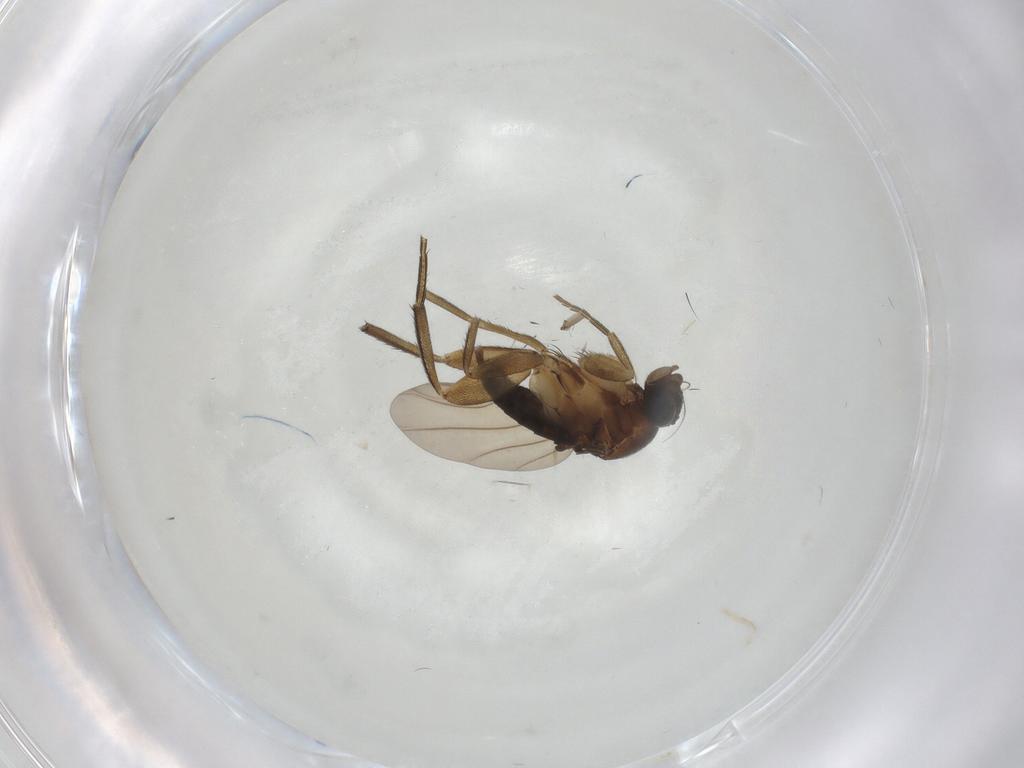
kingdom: Animalia
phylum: Arthropoda
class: Insecta
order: Diptera
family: Phoridae
